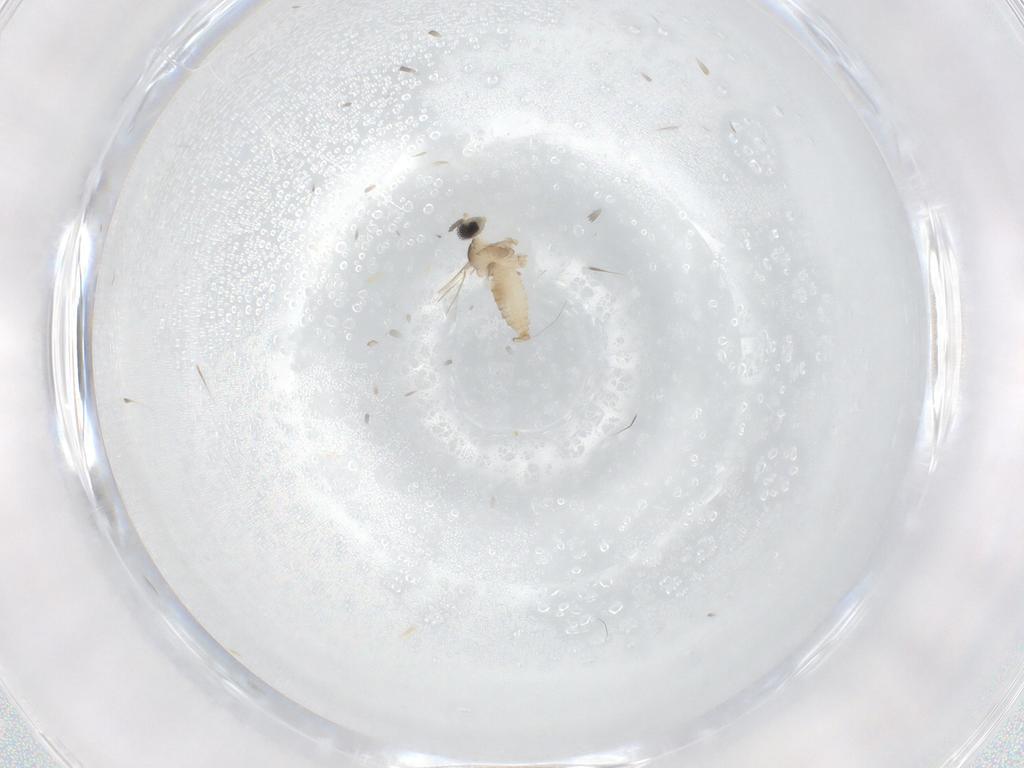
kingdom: Animalia
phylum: Arthropoda
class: Insecta
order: Diptera
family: Cecidomyiidae
